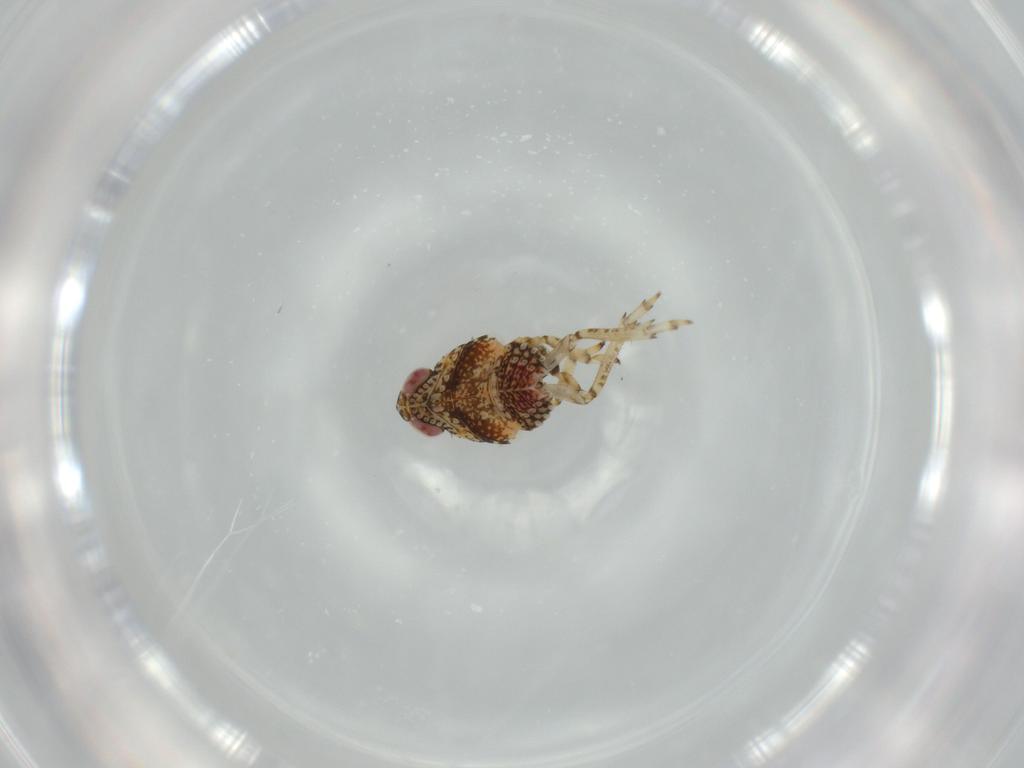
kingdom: Animalia
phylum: Arthropoda
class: Insecta
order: Hemiptera
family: Issidae
